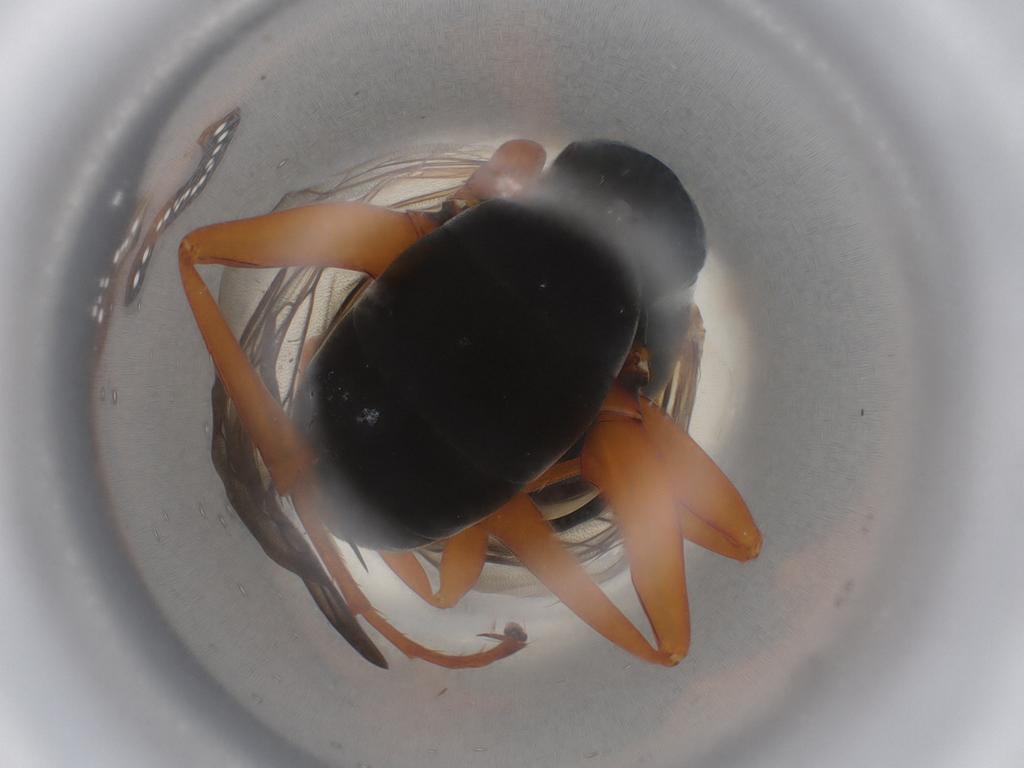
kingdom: Animalia
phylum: Arthropoda
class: Insecta
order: Hymenoptera
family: Crabronidae
